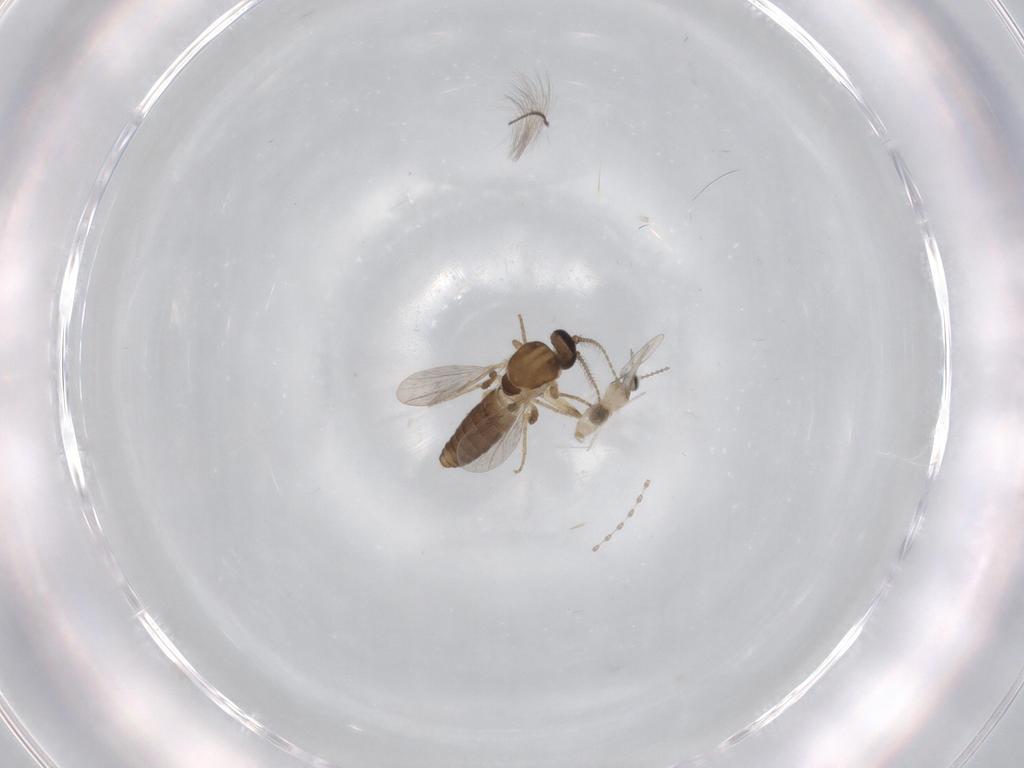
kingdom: Animalia
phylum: Arthropoda
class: Insecta
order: Diptera
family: Ceratopogonidae
